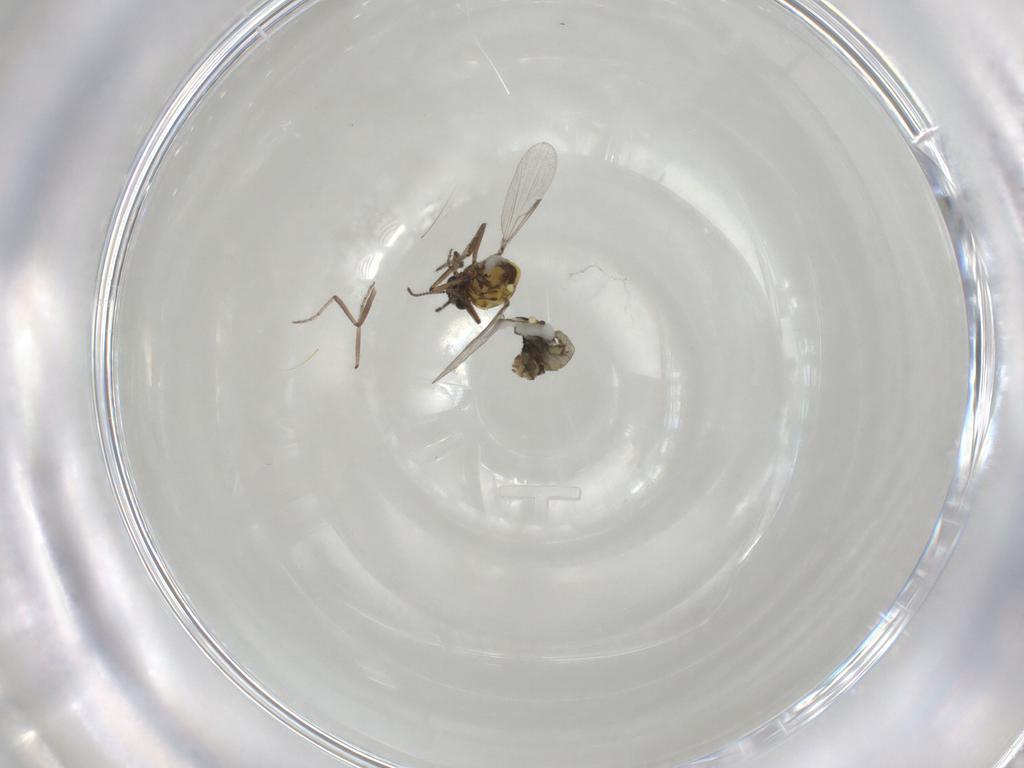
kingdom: Animalia
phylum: Arthropoda
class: Insecta
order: Diptera
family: Ceratopogonidae
